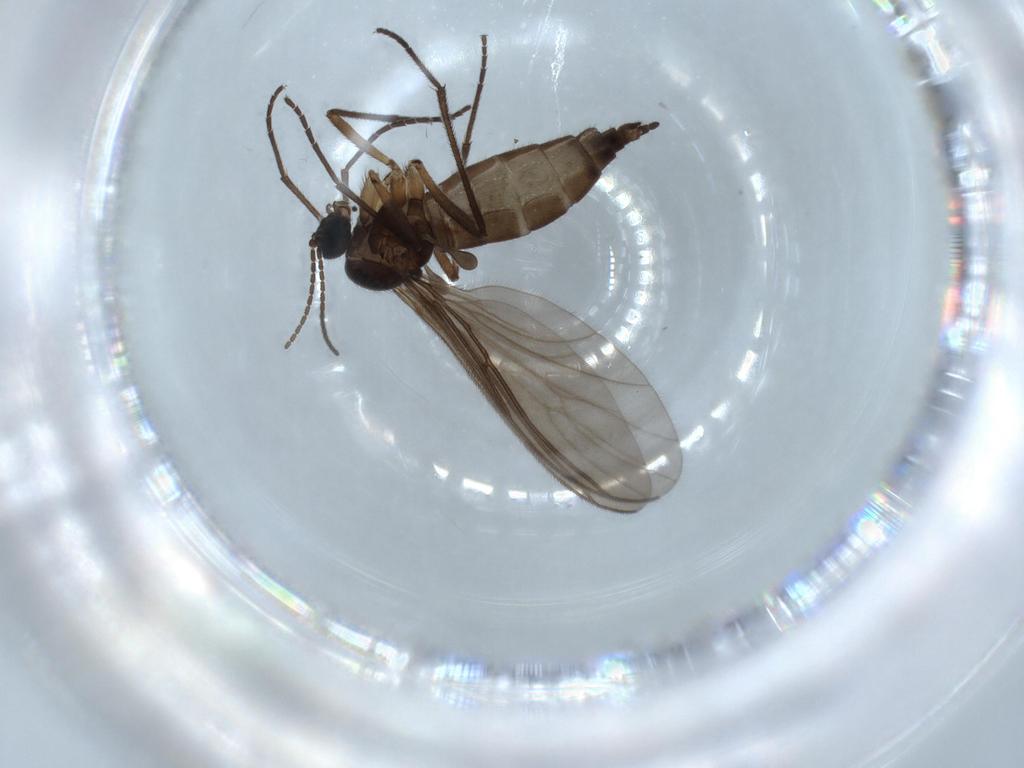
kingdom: Animalia
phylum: Arthropoda
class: Insecta
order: Diptera
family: Sciaridae
